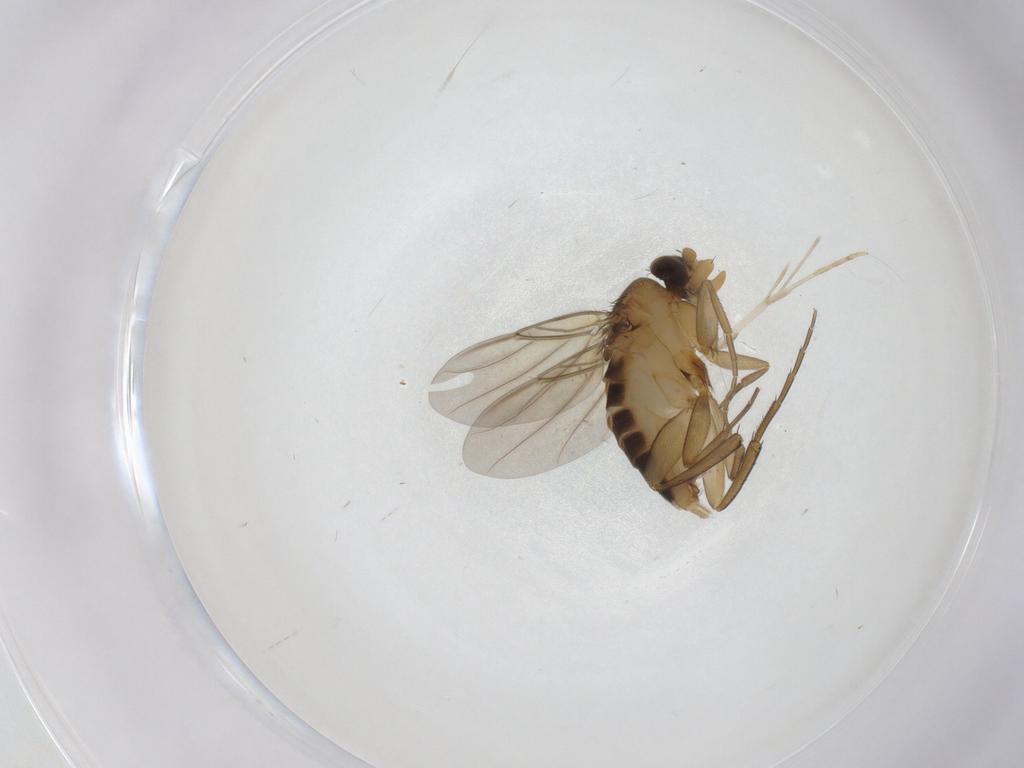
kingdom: Animalia
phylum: Arthropoda
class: Insecta
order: Diptera
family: Phoridae
